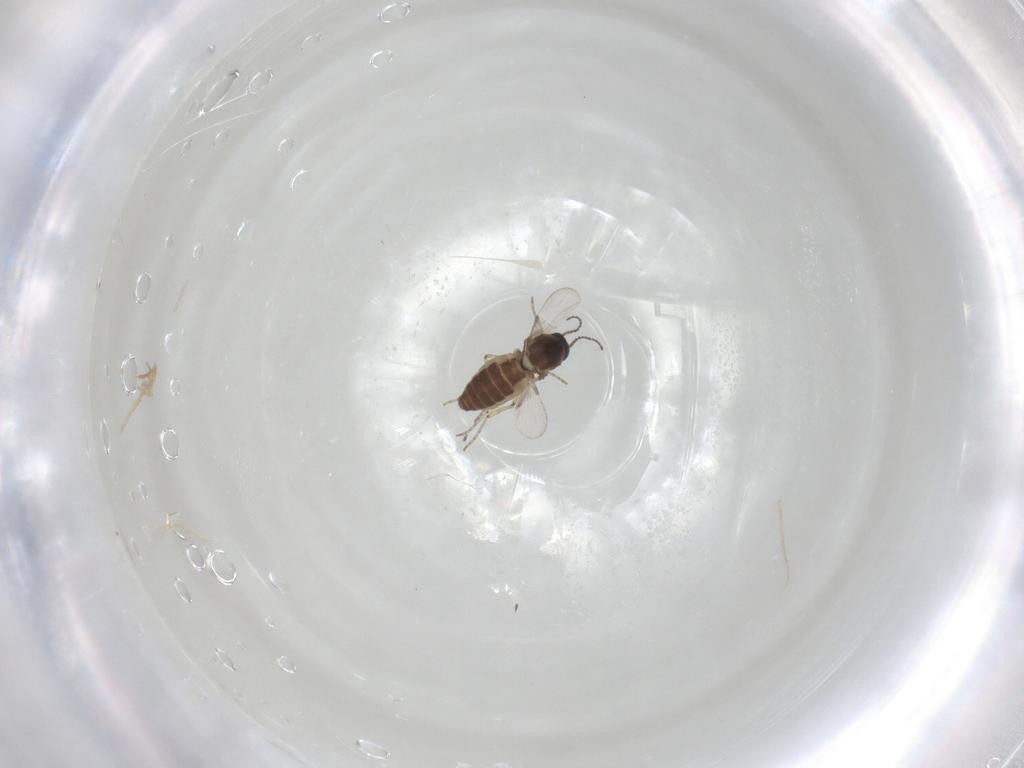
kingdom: Animalia
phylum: Arthropoda
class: Insecta
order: Diptera
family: Ceratopogonidae
